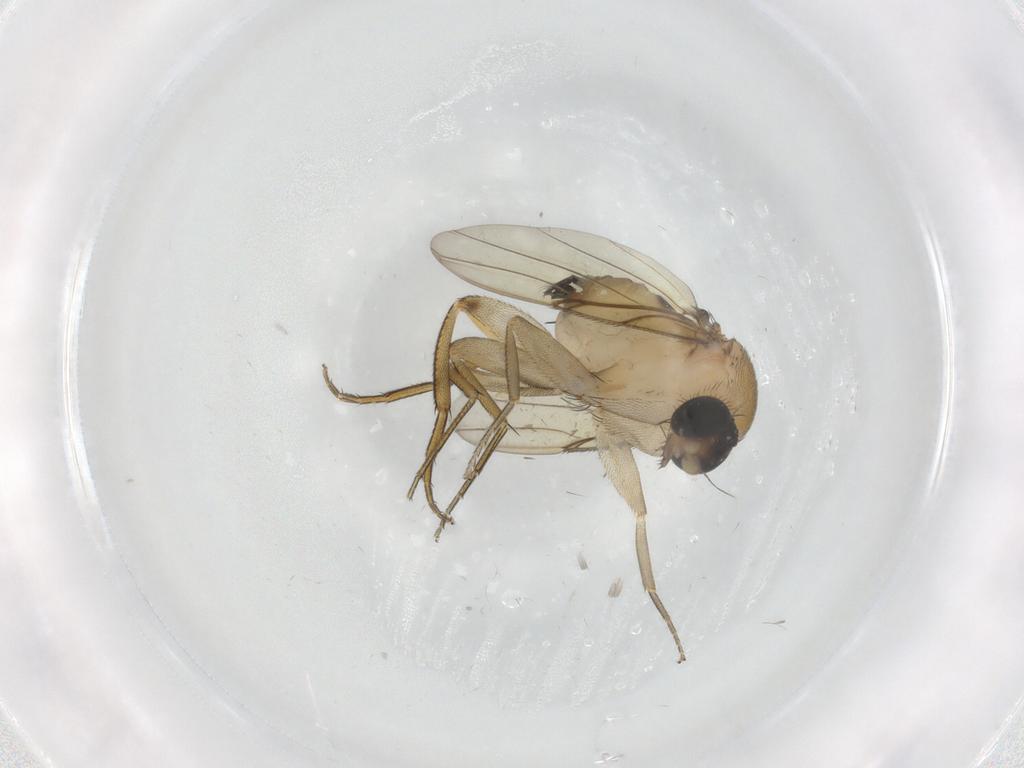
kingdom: Animalia
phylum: Arthropoda
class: Insecta
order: Diptera
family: Phoridae
